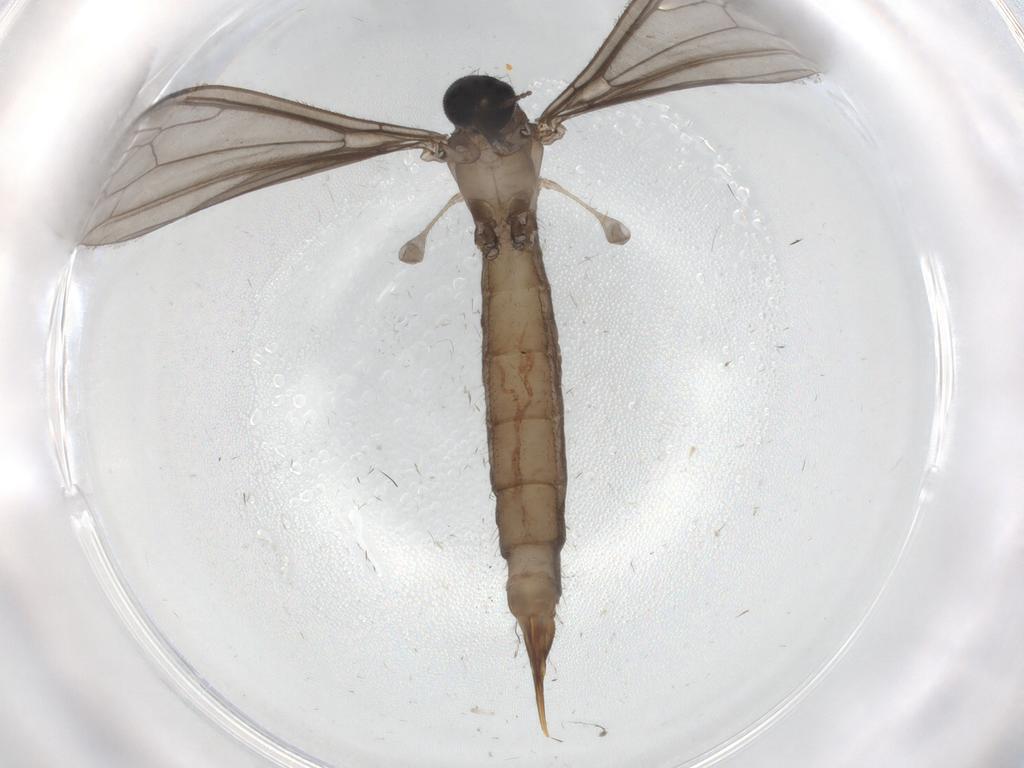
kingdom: Animalia
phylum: Arthropoda
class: Insecta
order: Diptera
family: Limoniidae
